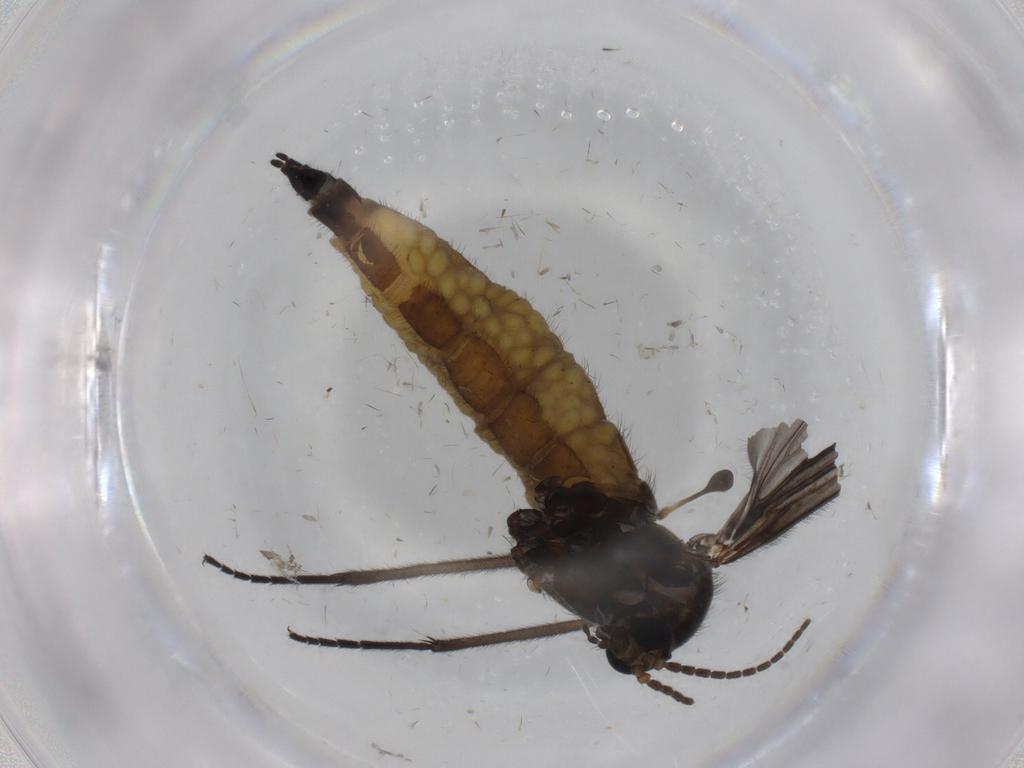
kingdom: Animalia
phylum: Arthropoda
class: Insecta
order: Diptera
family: Sciaridae
